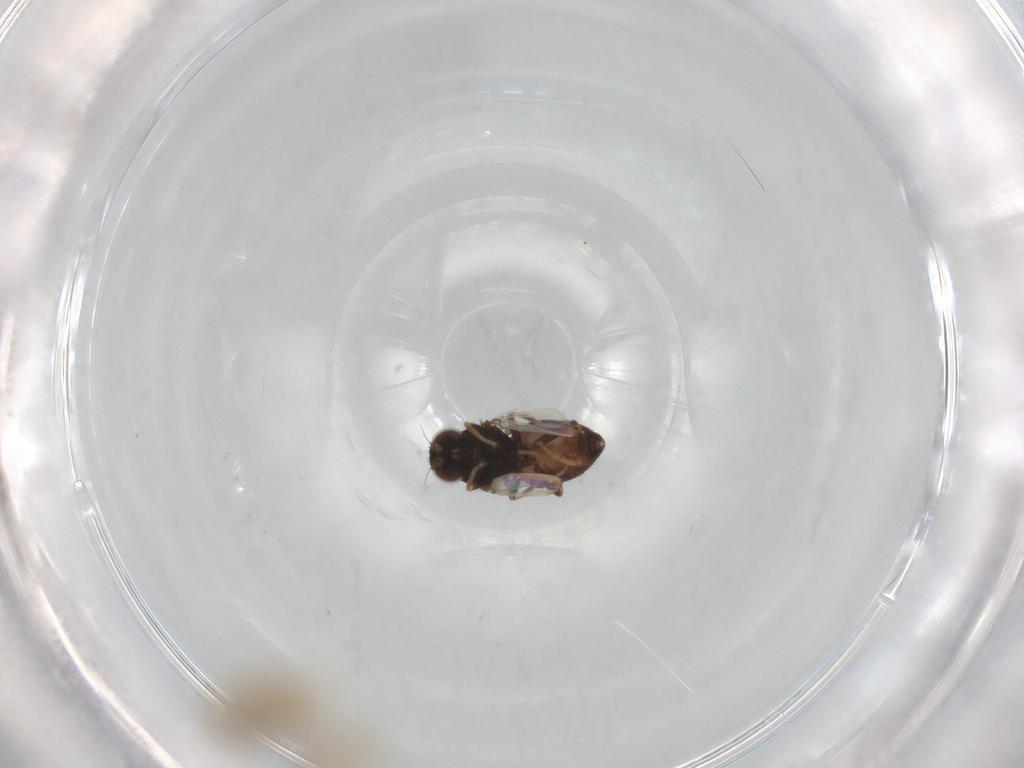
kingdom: Animalia
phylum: Arthropoda
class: Insecta
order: Diptera
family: Chloropidae
